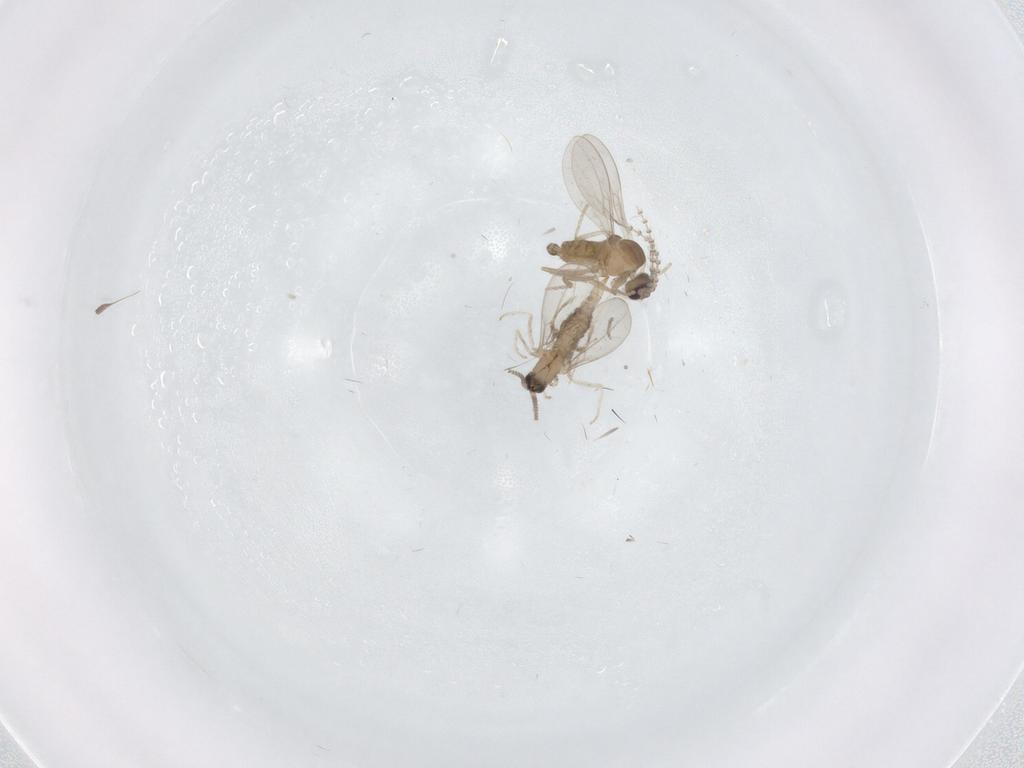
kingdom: Animalia
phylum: Arthropoda
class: Insecta
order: Diptera
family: Cecidomyiidae
